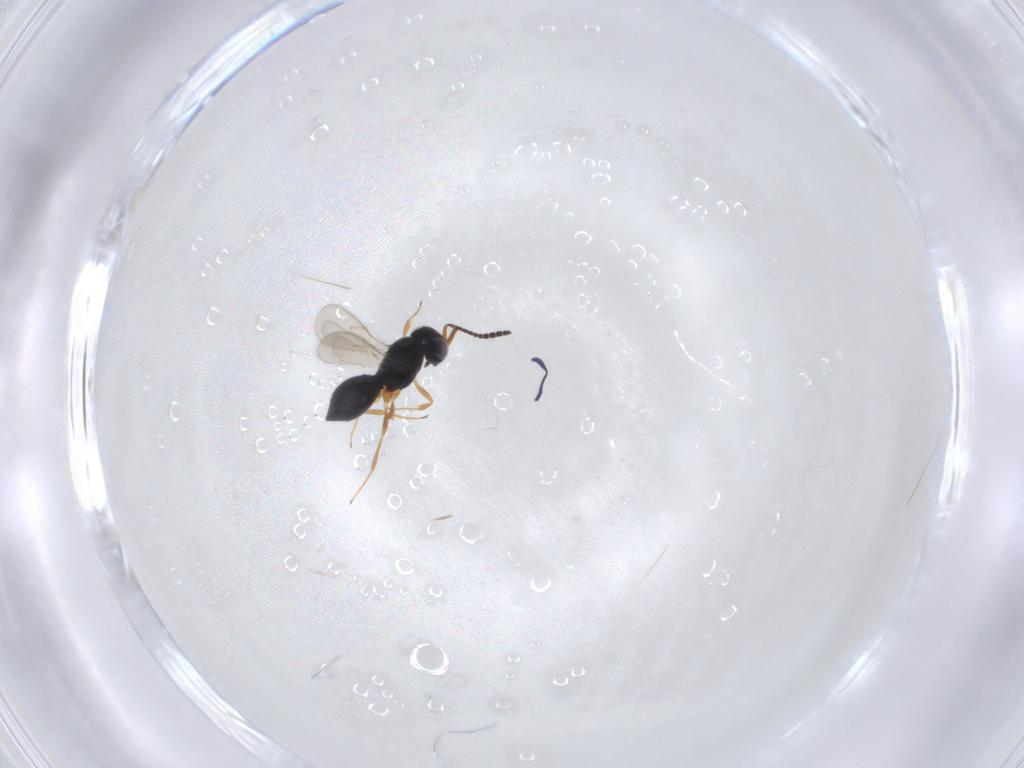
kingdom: Animalia
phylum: Arthropoda
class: Insecta
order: Hymenoptera
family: Scelionidae
